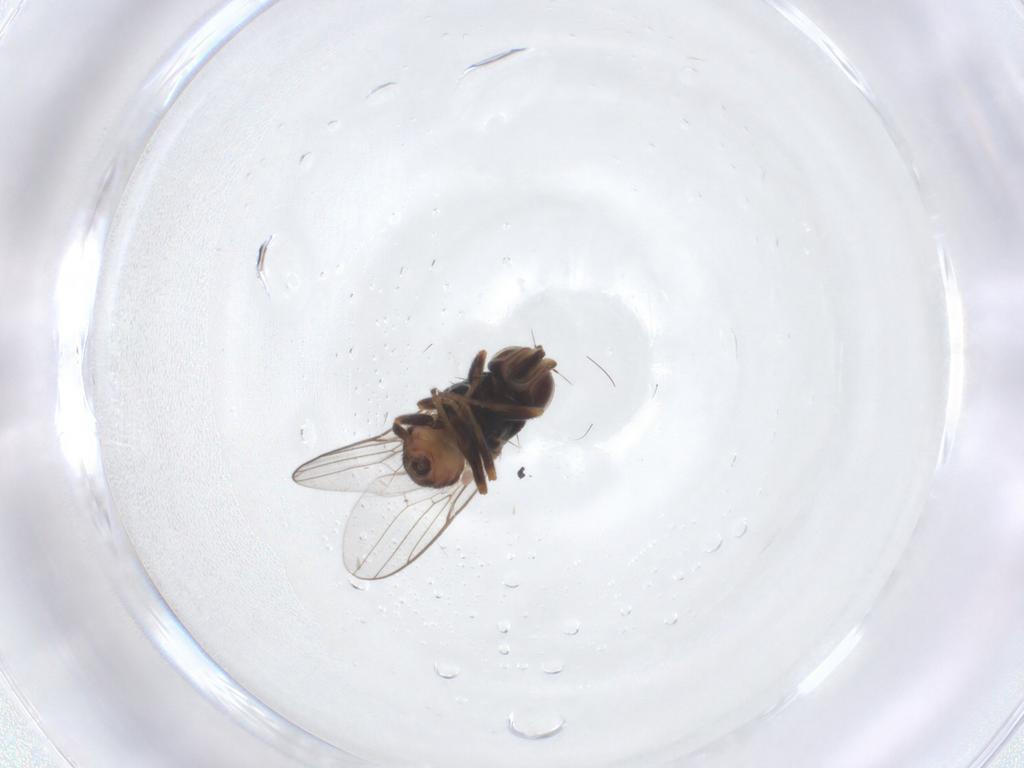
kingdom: Animalia
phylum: Arthropoda
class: Insecta
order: Diptera
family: Chloropidae
